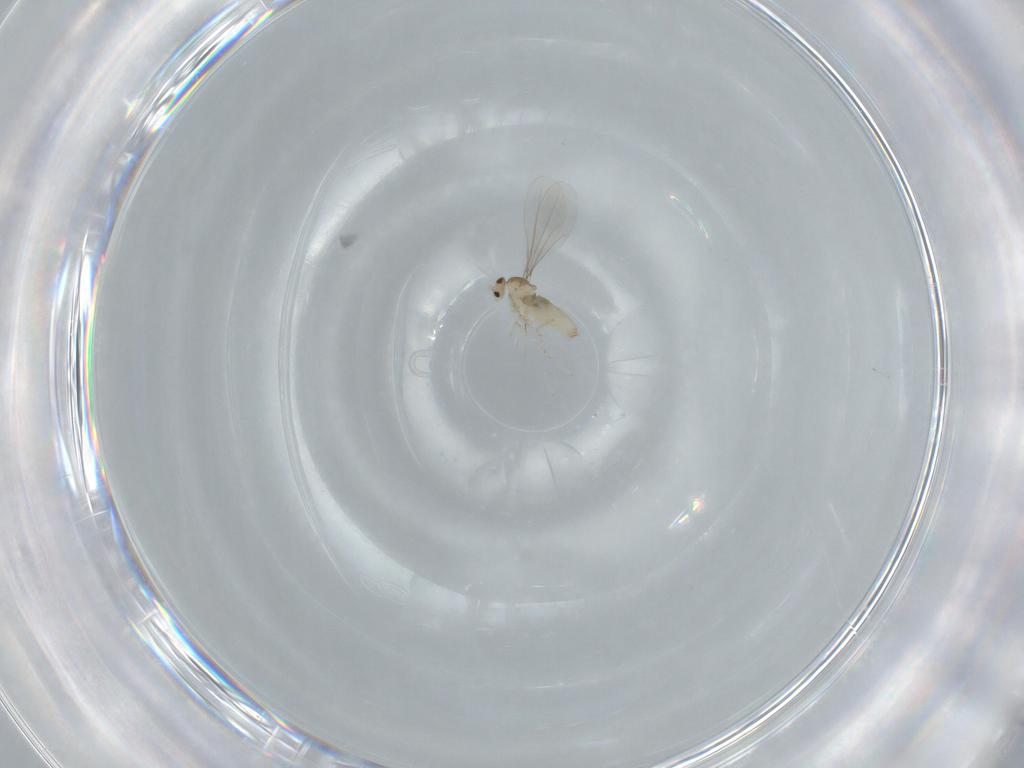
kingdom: Animalia
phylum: Arthropoda
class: Insecta
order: Diptera
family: Cecidomyiidae
